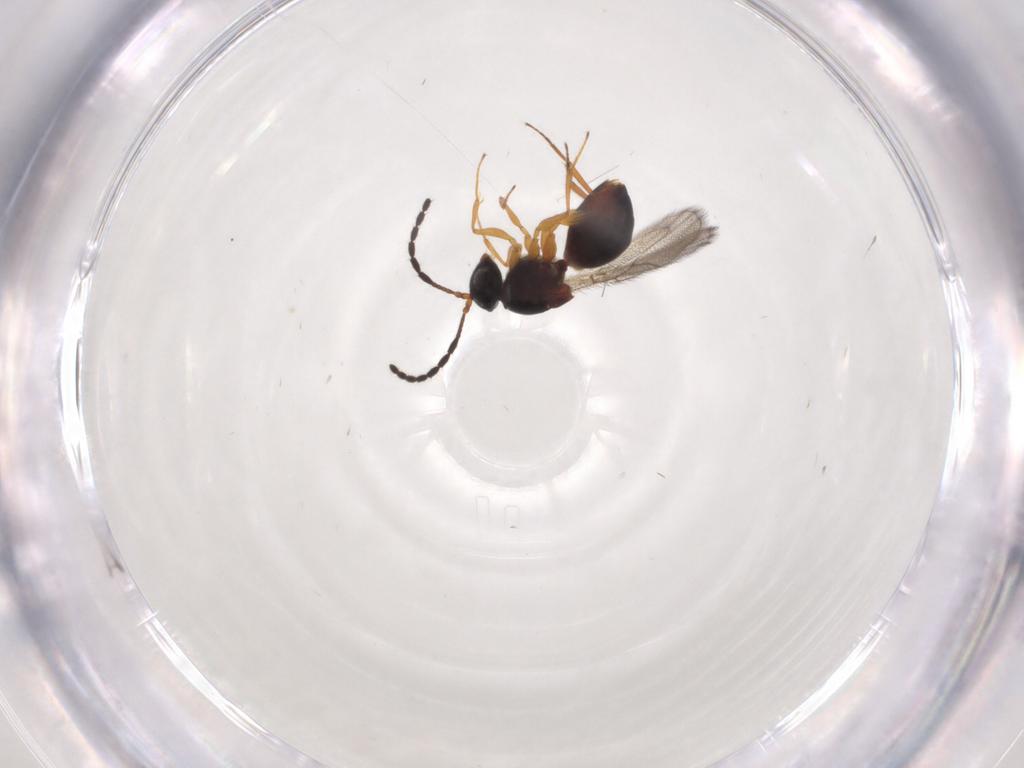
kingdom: Animalia
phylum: Arthropoda
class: Insecta
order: Hymenoptera
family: Figitidae
